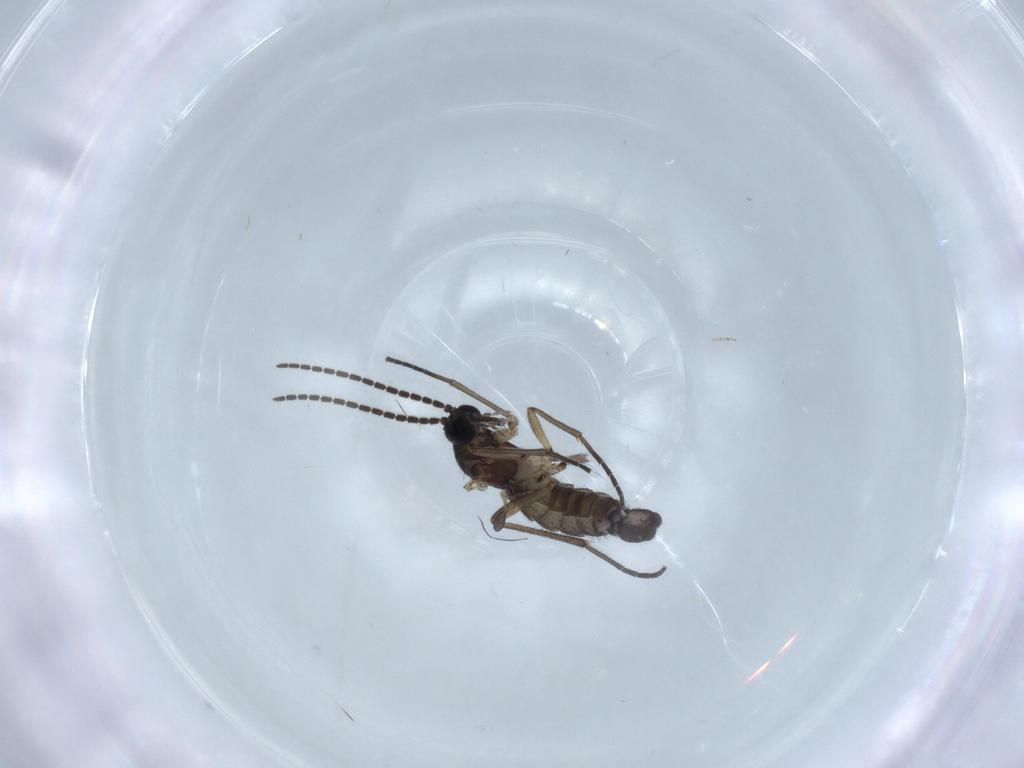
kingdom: Animalia
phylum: Arthropoda
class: Insecta
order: Diptera
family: Sciaridae
